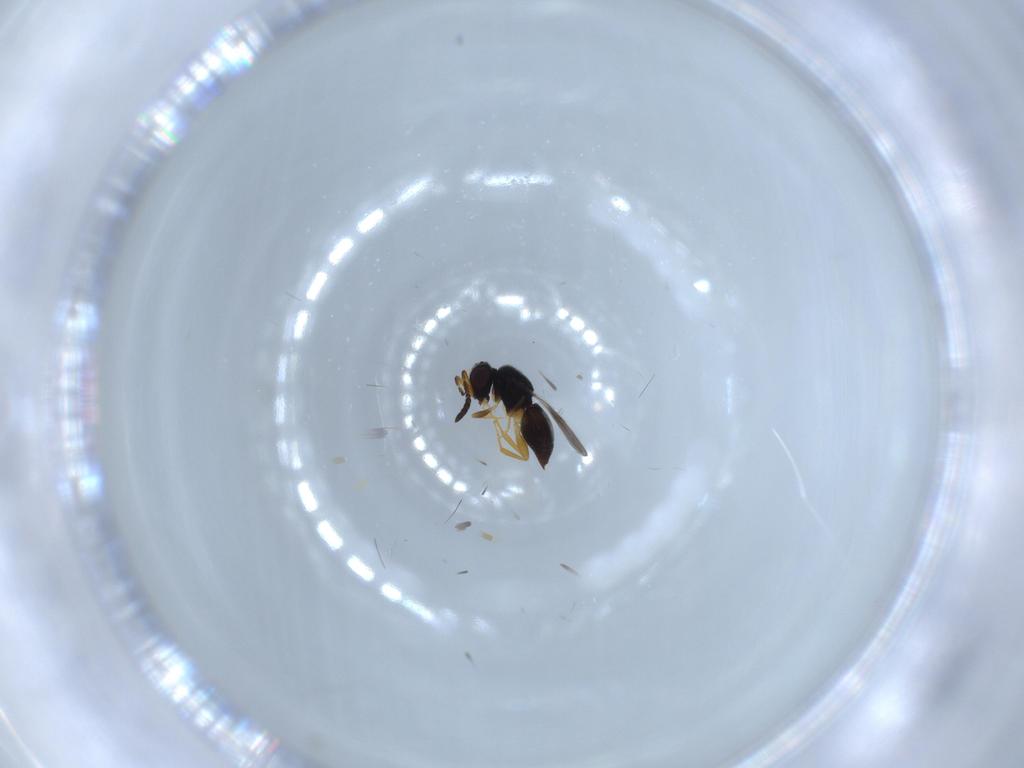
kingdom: Animalia
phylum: Arthropoda
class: Insecta
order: Hymenoptera
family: Ceraphronidae
